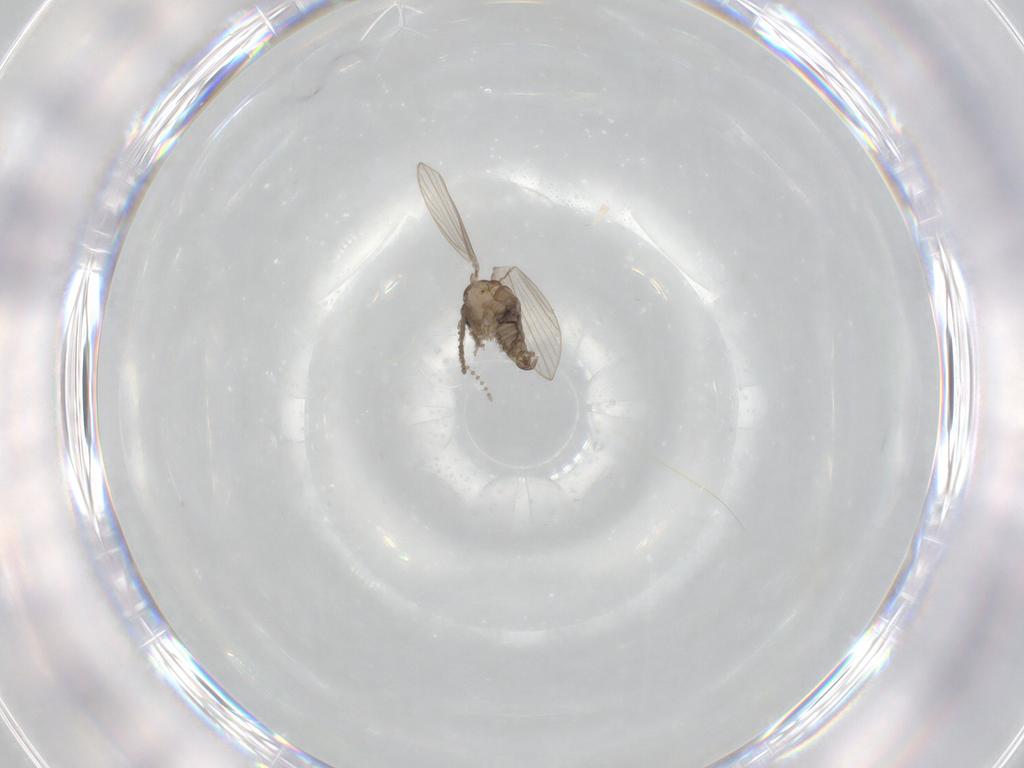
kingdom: Animalia
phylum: Arthropoda
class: Insecta
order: Diptera
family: Psychodidae
